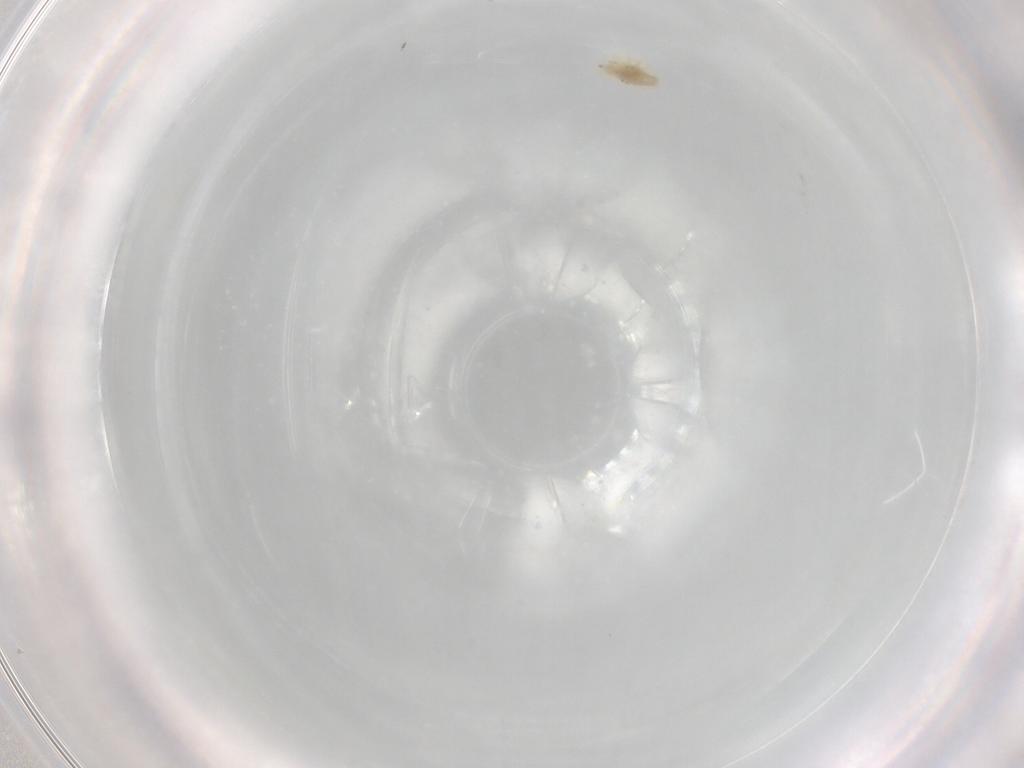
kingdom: Animalia
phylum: Arthropoda
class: Arachnida
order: Trombidiformes
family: Bdellidae
